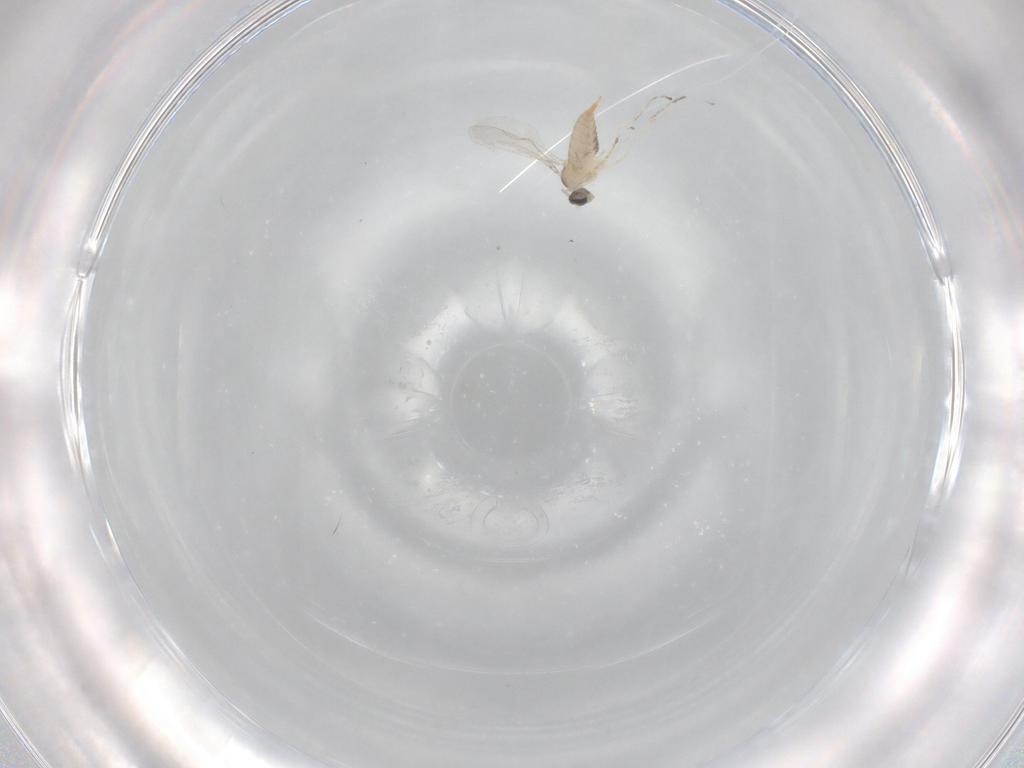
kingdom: Animalia
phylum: Arthropoda
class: Insecta
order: Diptera
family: Cecidomyiidae
